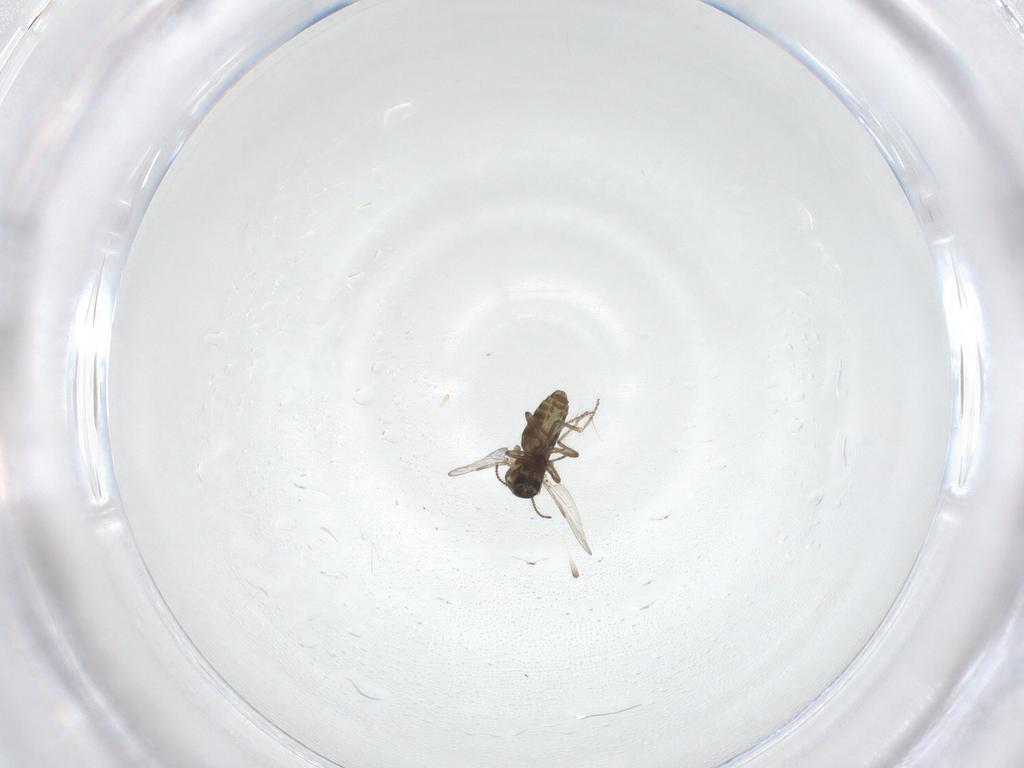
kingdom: Animalia
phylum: Arthropoda
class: Insecta
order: Diptera
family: Ceratopogonidae
